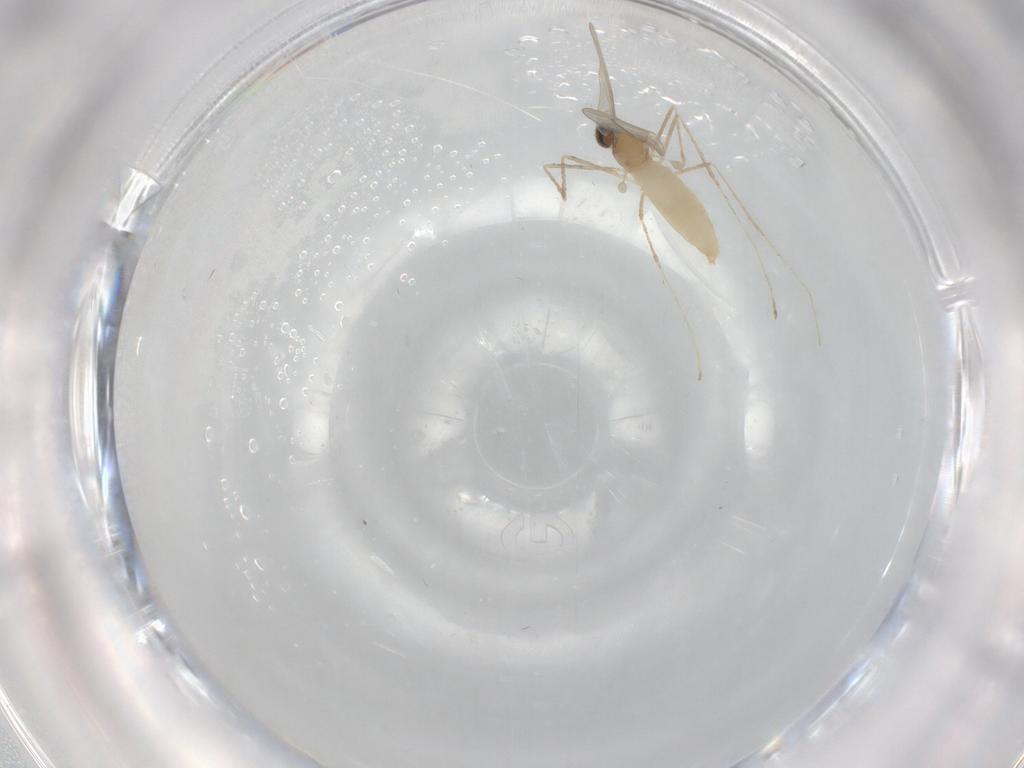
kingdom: Animalia
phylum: Arthropoda
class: Insecta
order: Diptera
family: Cecidomyiidae
